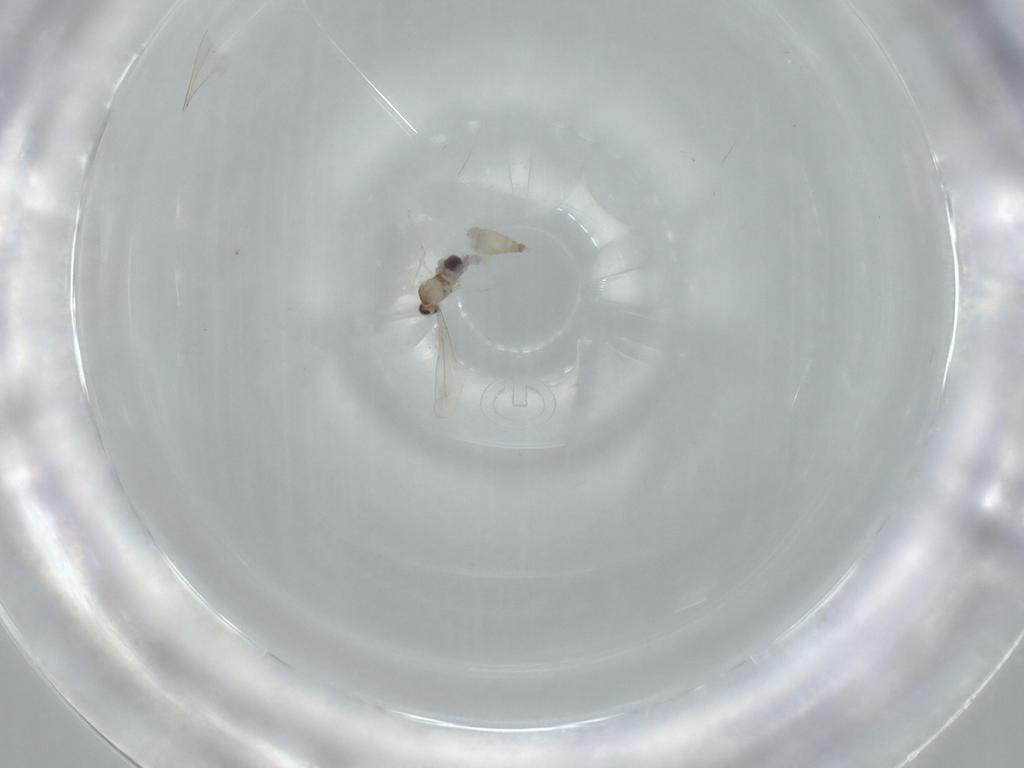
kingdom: Animalia
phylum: Arthropoda
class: Insecta
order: Diptera
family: Cecidomyiidae
